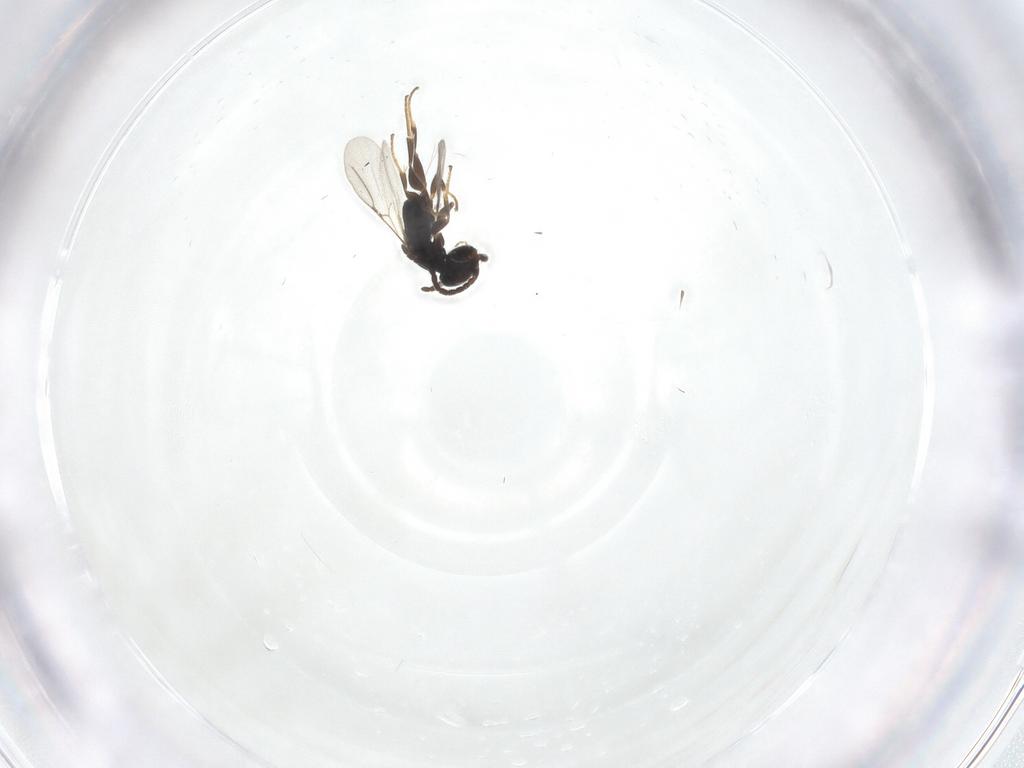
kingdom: Animalia
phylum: Arthropoda
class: Insecta
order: Hymenoptera
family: Bethylidae
